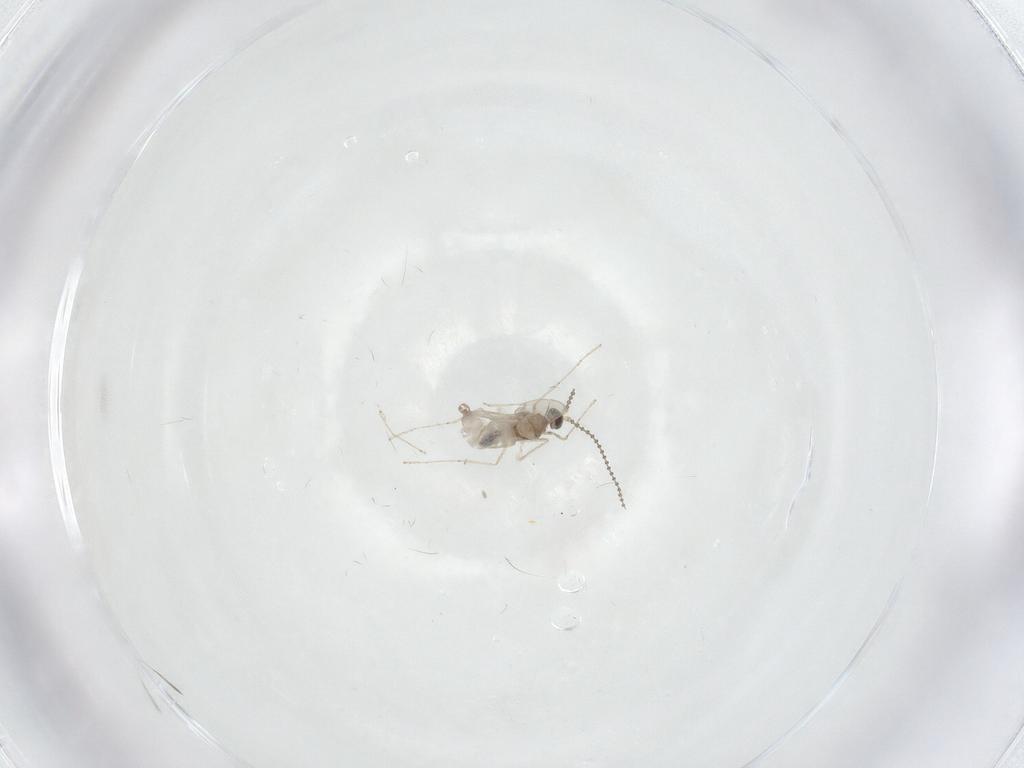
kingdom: Animalia
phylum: Arthropoda
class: Insecta
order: Diptera
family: Cecidomyiidae
